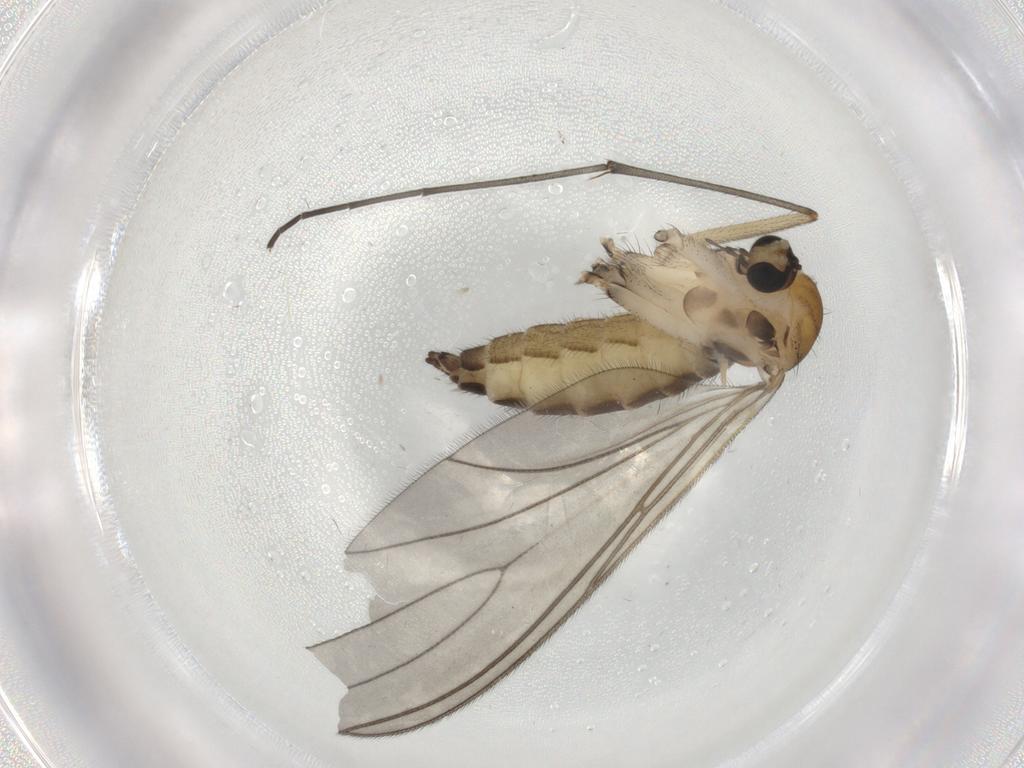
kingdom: Animalia
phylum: Arthropoda
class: Insecta
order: Diptera
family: Sciaridae
